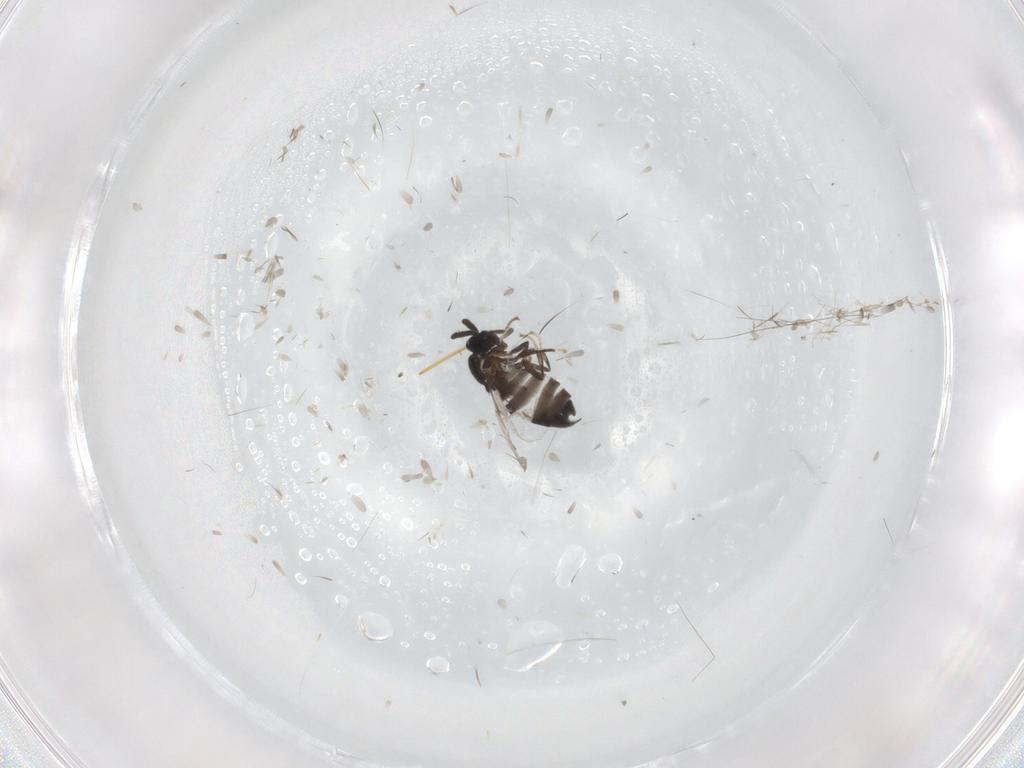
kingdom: Animalia
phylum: Arthropoda
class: Insecta
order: Diptera
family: Scatopsidae
